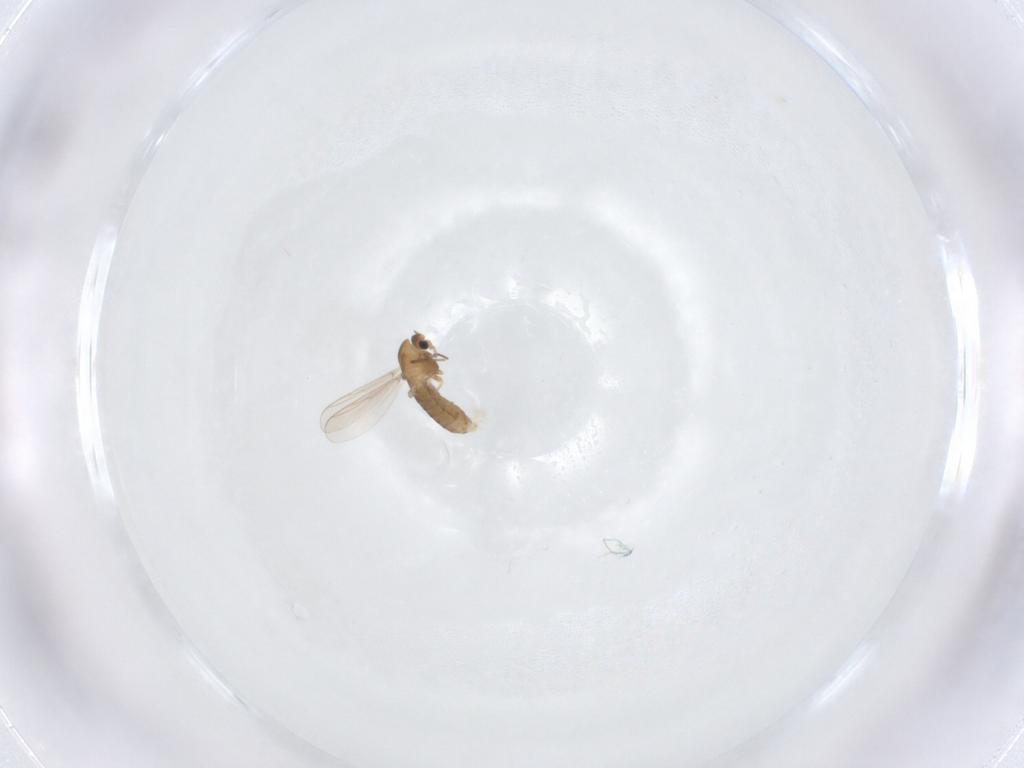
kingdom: Animalia
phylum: Arthropoda
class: Insecta
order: Diptera
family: Chironomidae
